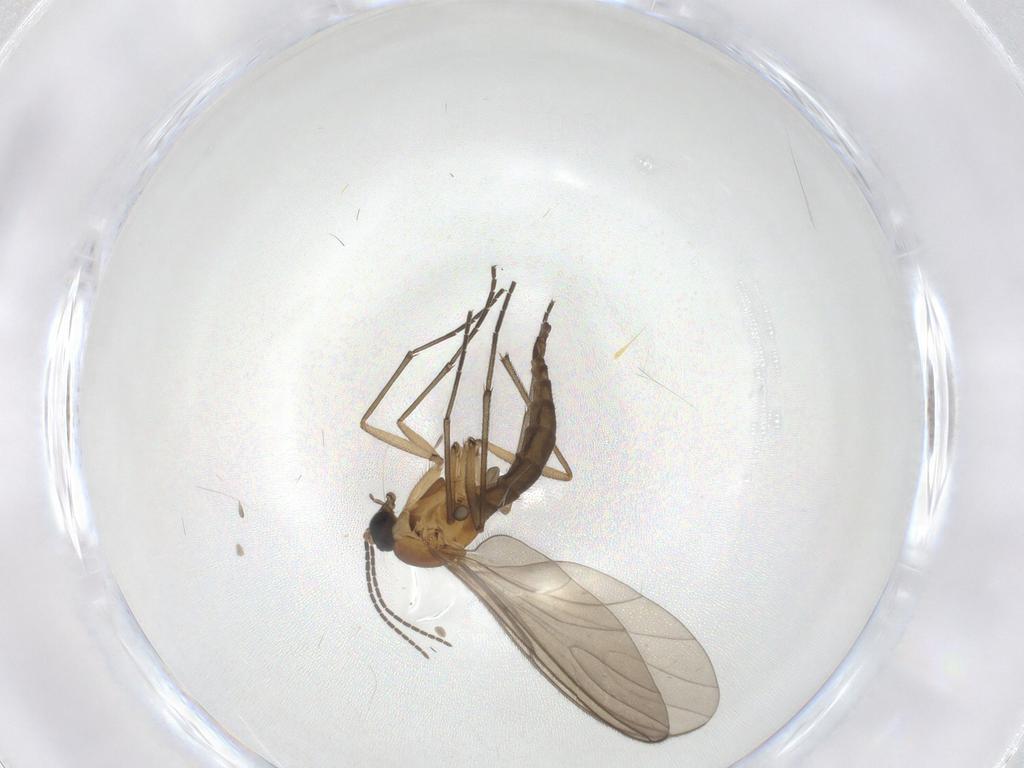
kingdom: Animalia
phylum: Arthropoda
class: Insecta
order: Diptera
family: Sciaridae
